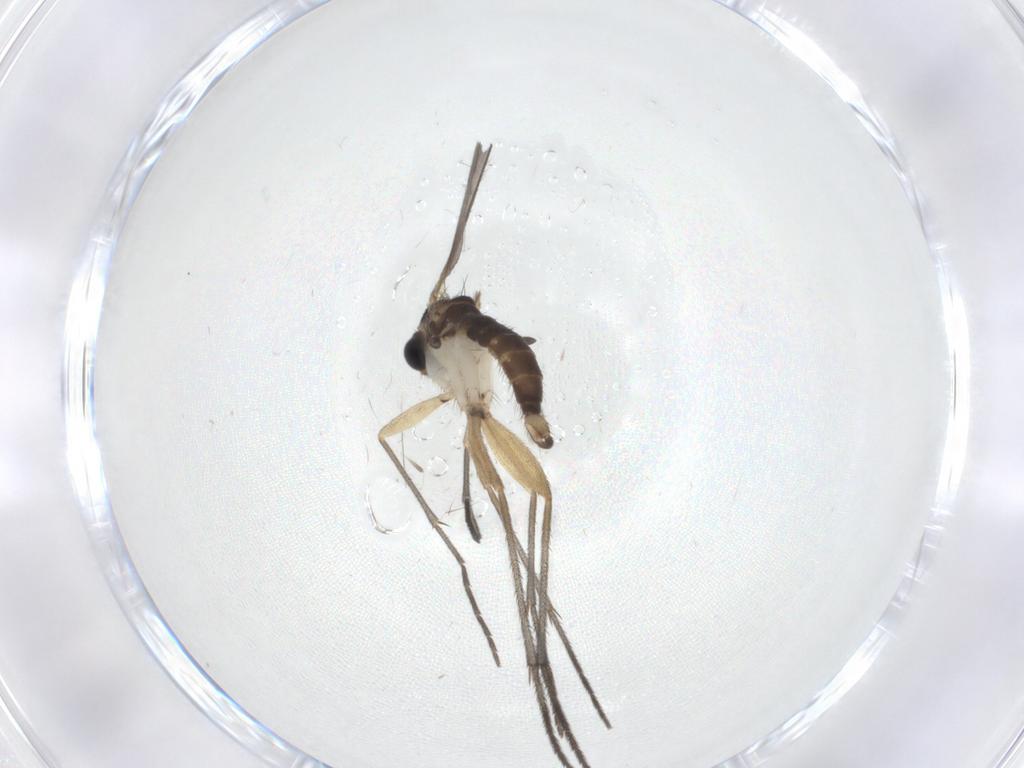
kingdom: Animalia
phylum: Arthropoda
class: Insecta
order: Diptera
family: Sciaridae
